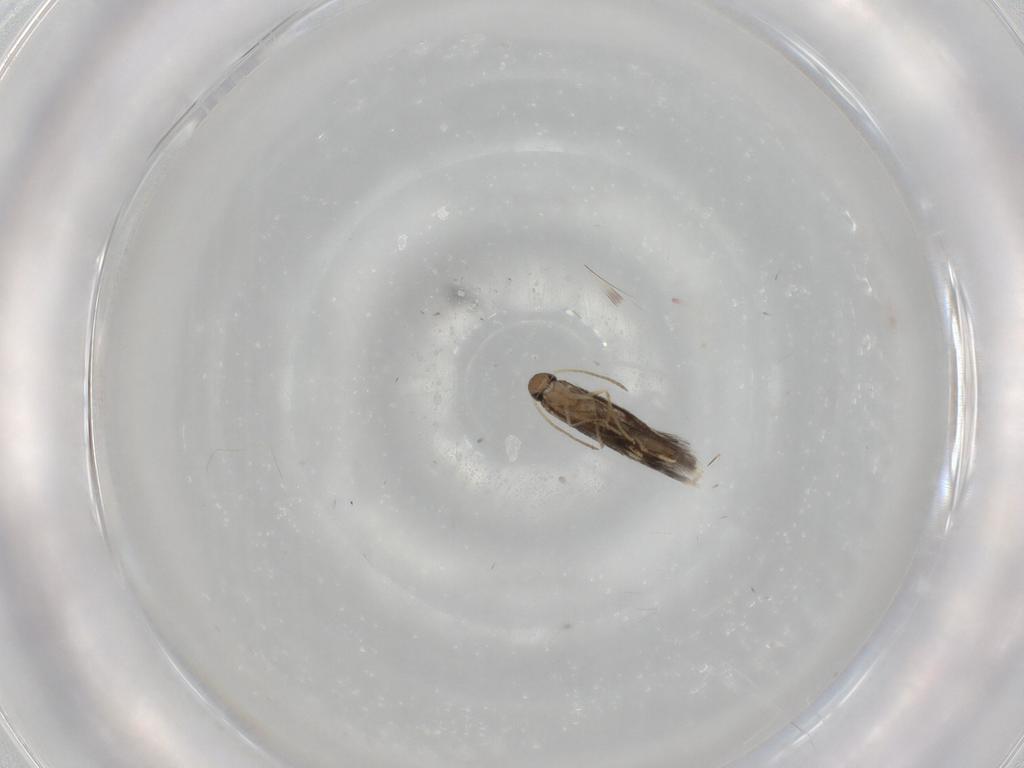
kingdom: Animalia
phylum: Arthropoda
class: Insecta
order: Lepidoptera
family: Heliozelidae
